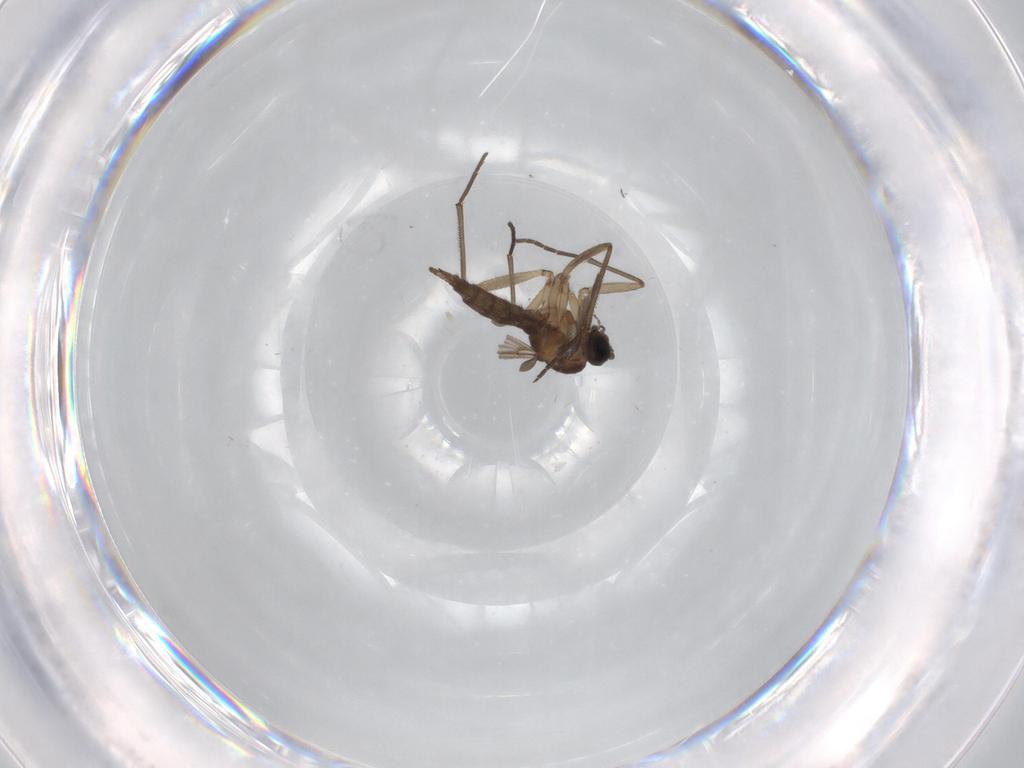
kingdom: Animalia
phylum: Arthropoda
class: Insecta
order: Diptera
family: Sciaridae
